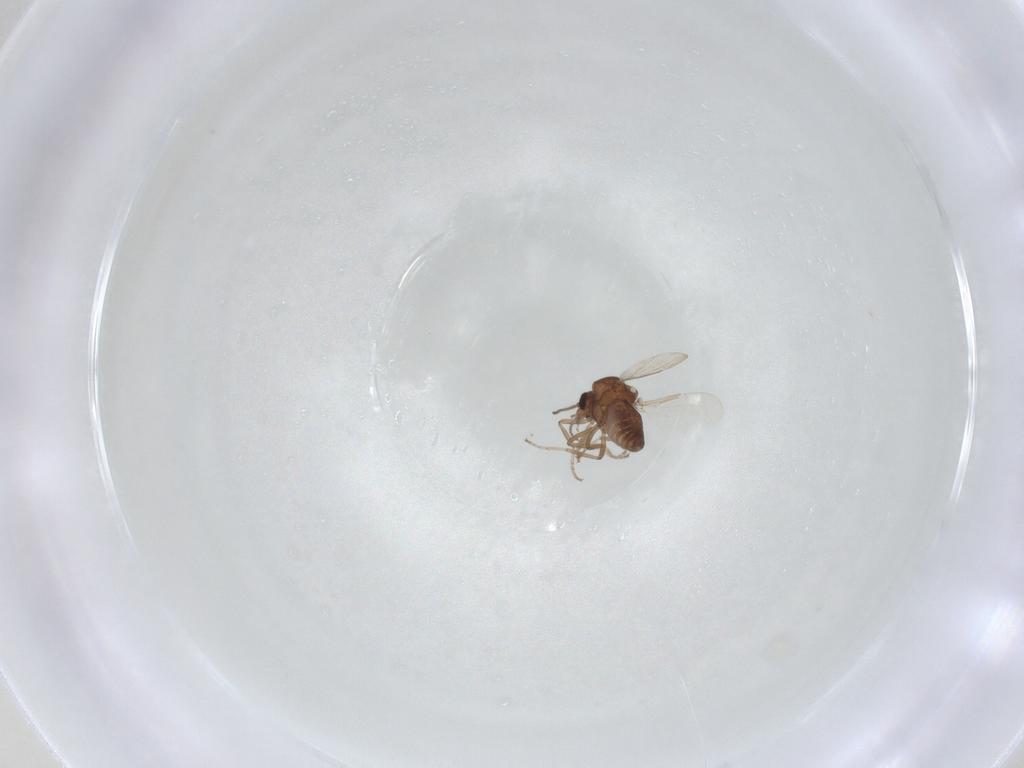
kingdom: Animalia
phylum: Arthropoda
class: Insecta
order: Diptera
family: Ceratopogonidae
